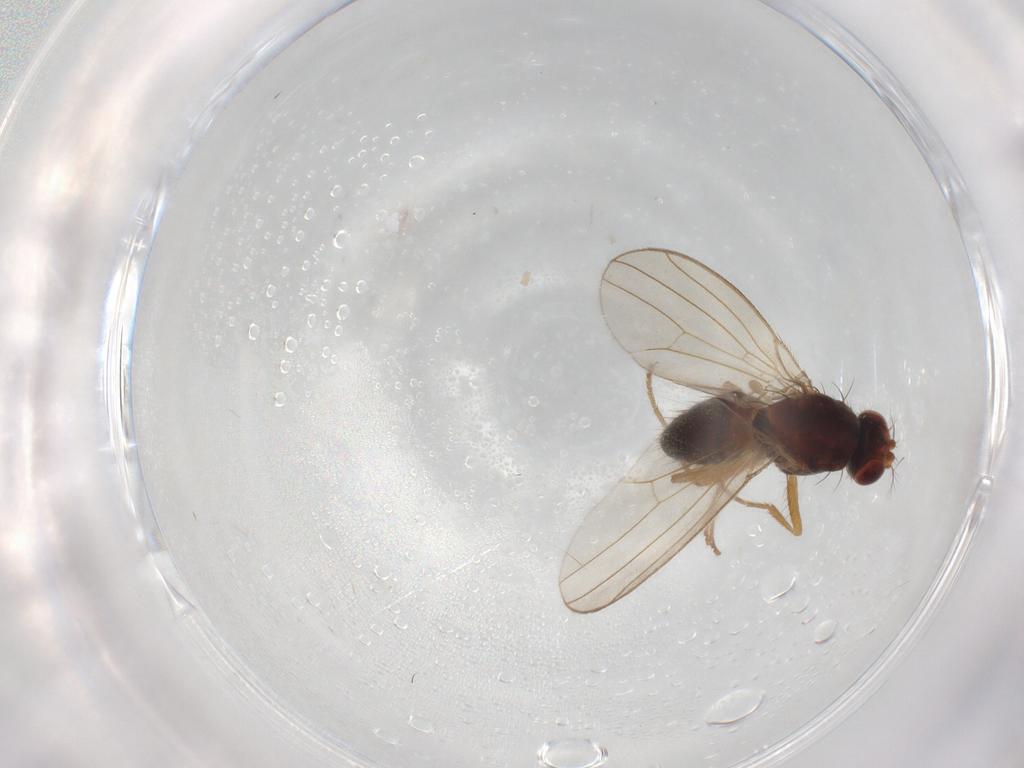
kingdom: Animalia
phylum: Arthropoda
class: Insecta
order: Diptera
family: Drosophilidae
